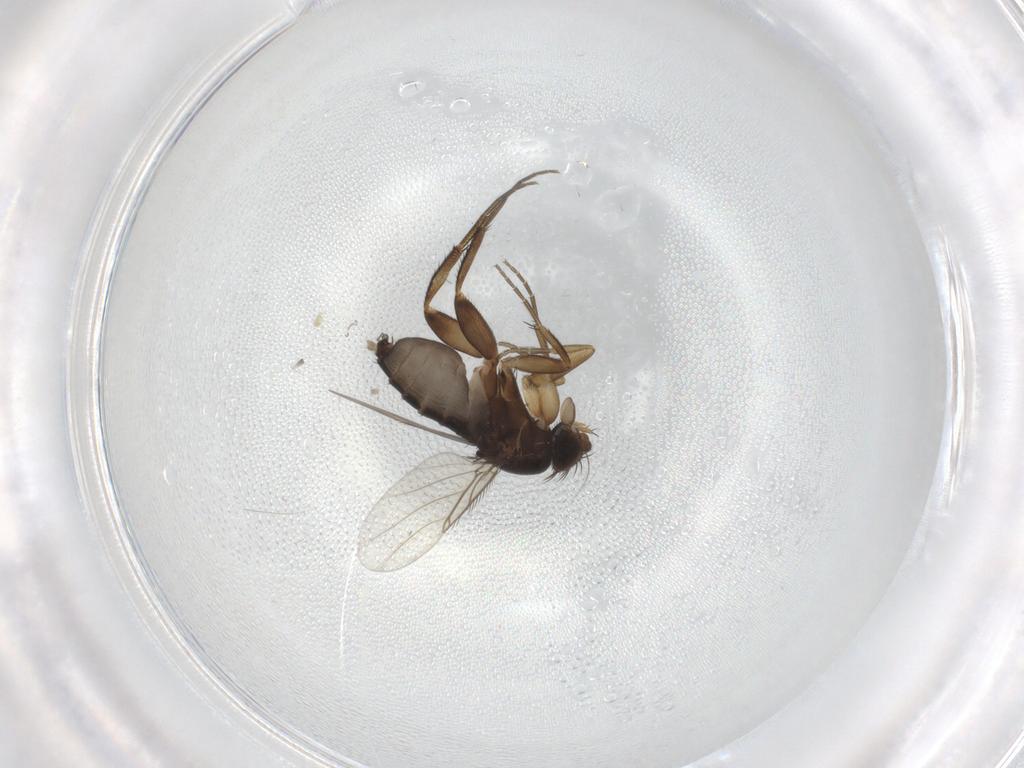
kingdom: Animalia
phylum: Arthropoda
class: Insecta
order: Diptera
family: Phoridae
